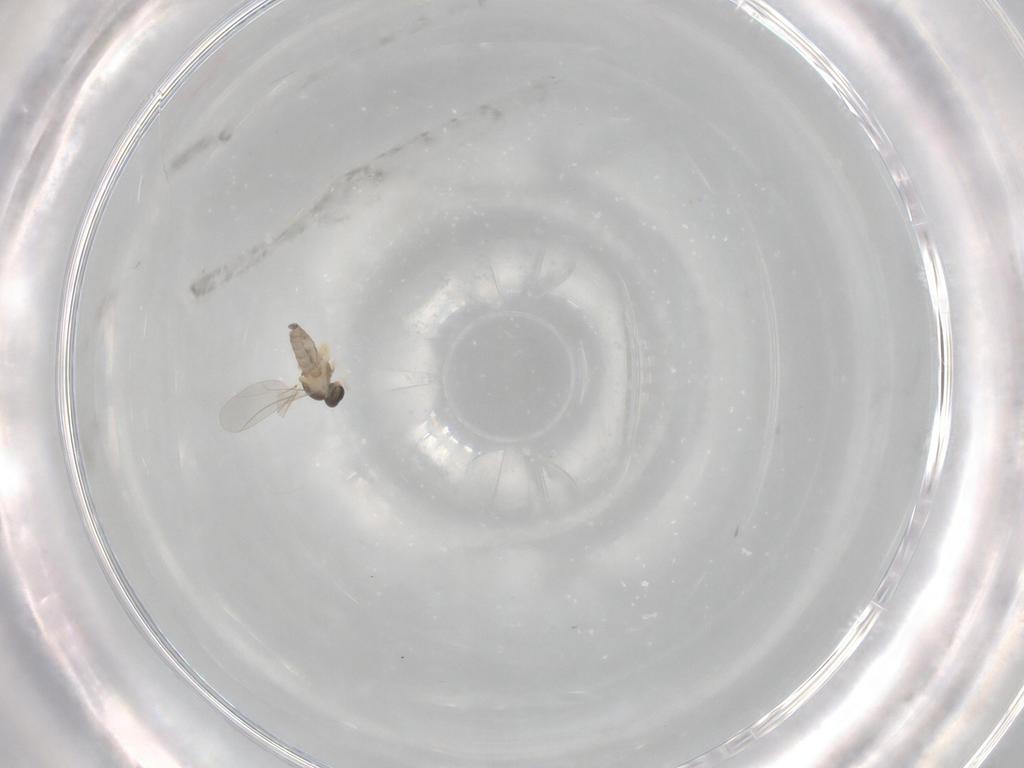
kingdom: Animalia
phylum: Arthropoda
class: Insecta
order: Diptera
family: Cecidomyiidae
